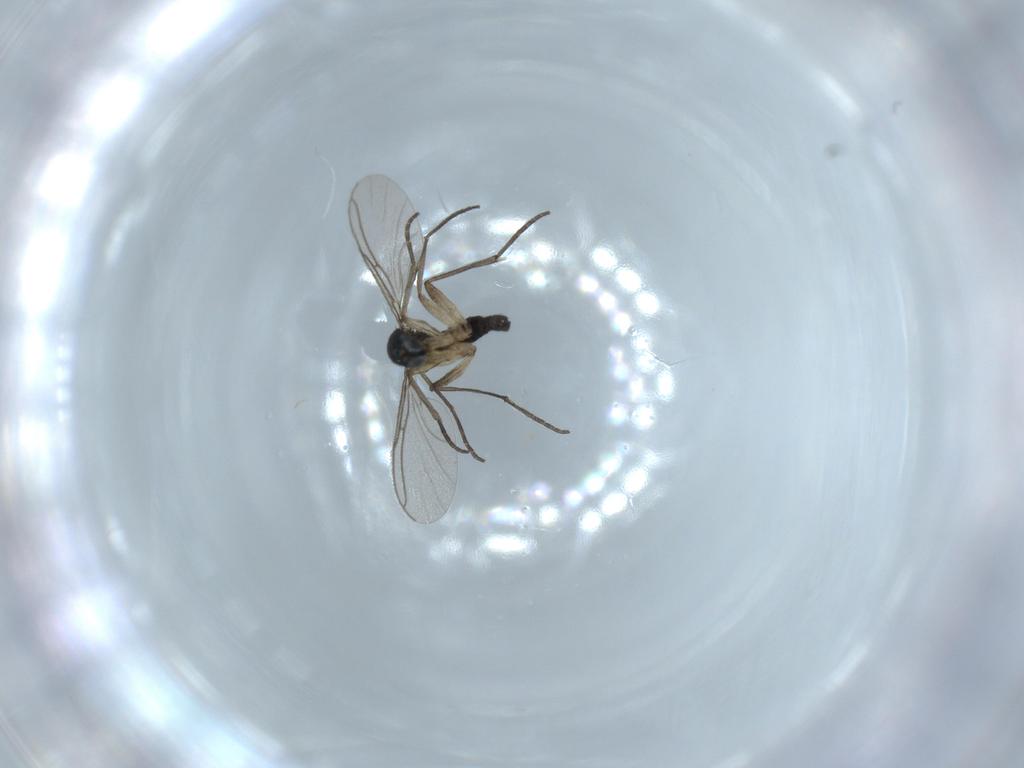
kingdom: Animalia
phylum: Arthropoda
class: Insecta
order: Diptera
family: Sciaridae
